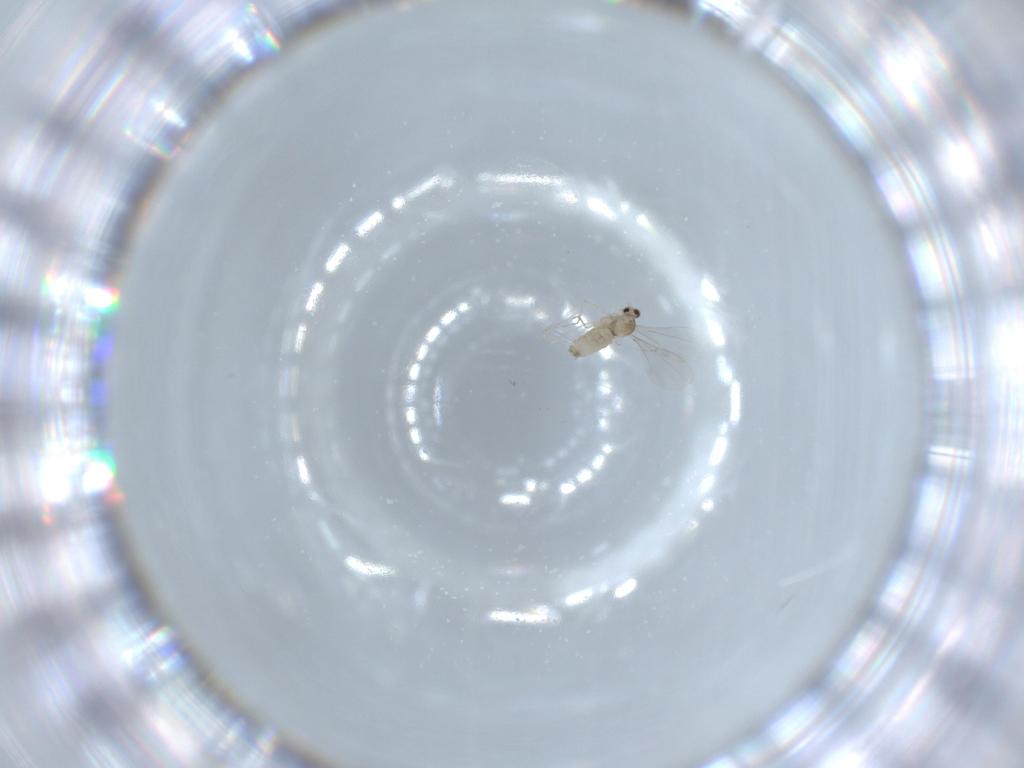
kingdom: Animalia
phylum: Arthropoda
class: Insecta
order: Diptera
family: Cecidomyiidae
